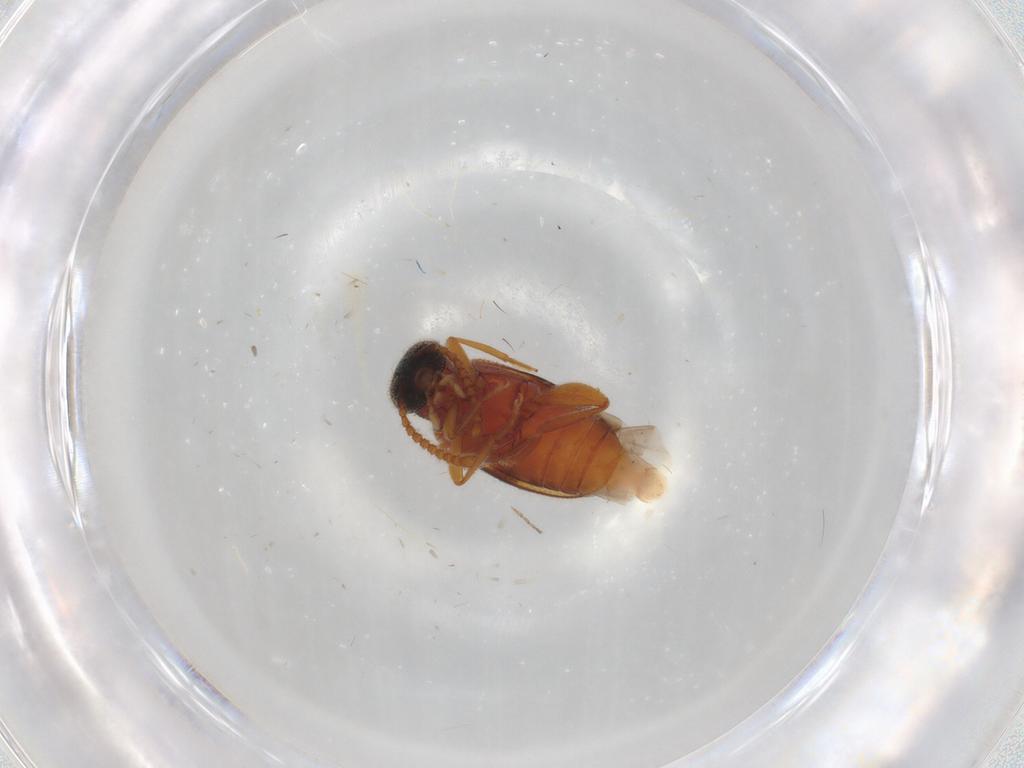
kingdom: Animalia
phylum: Arthropoda
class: Insecta
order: Coleoptera
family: Aderidae
